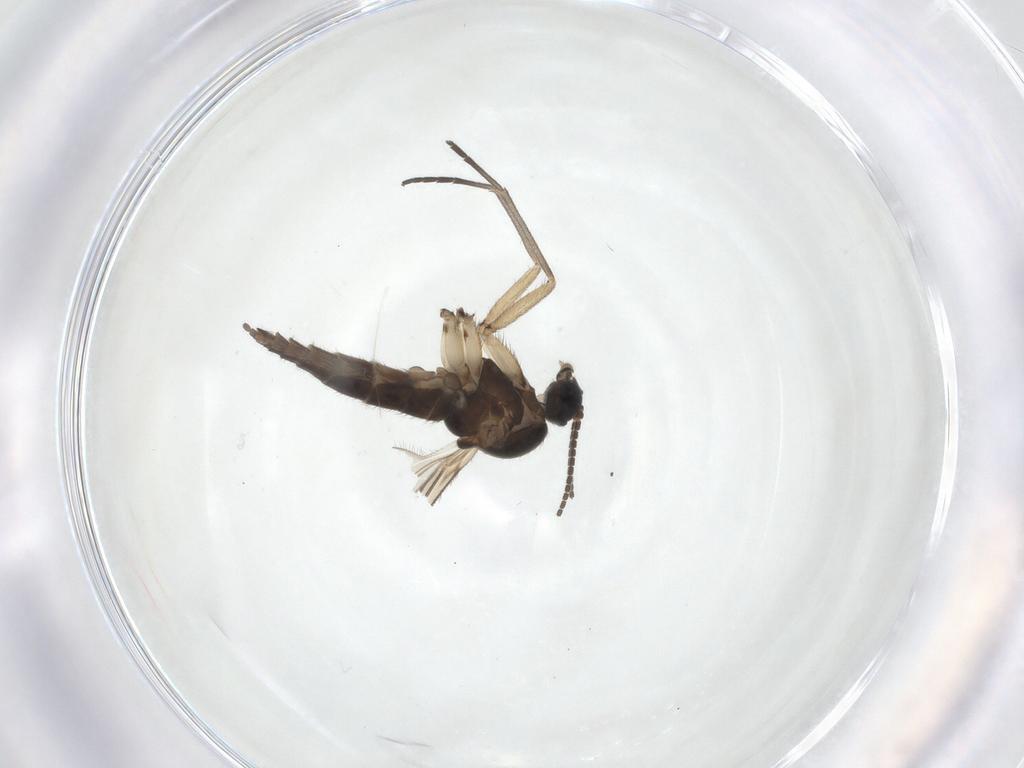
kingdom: Animalia
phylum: Arthropoda
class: Insecta
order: Diptera
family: Sciaridae
